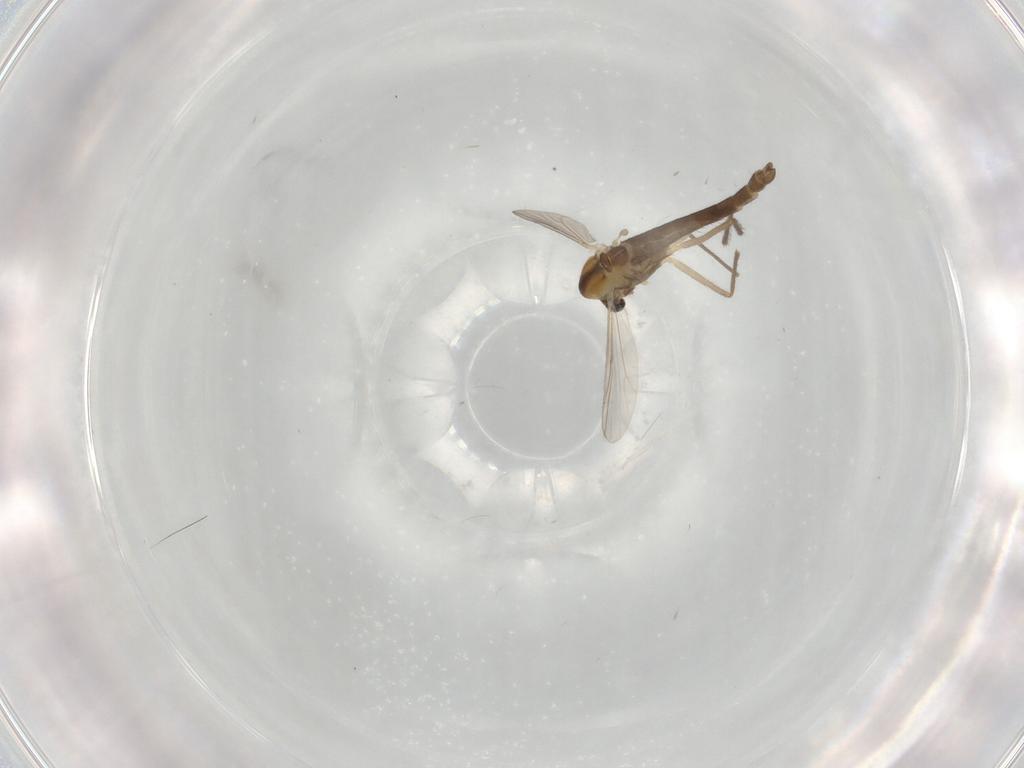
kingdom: Animalia
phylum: Arthropoda
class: Insecta
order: Diptera
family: Chironomidae
